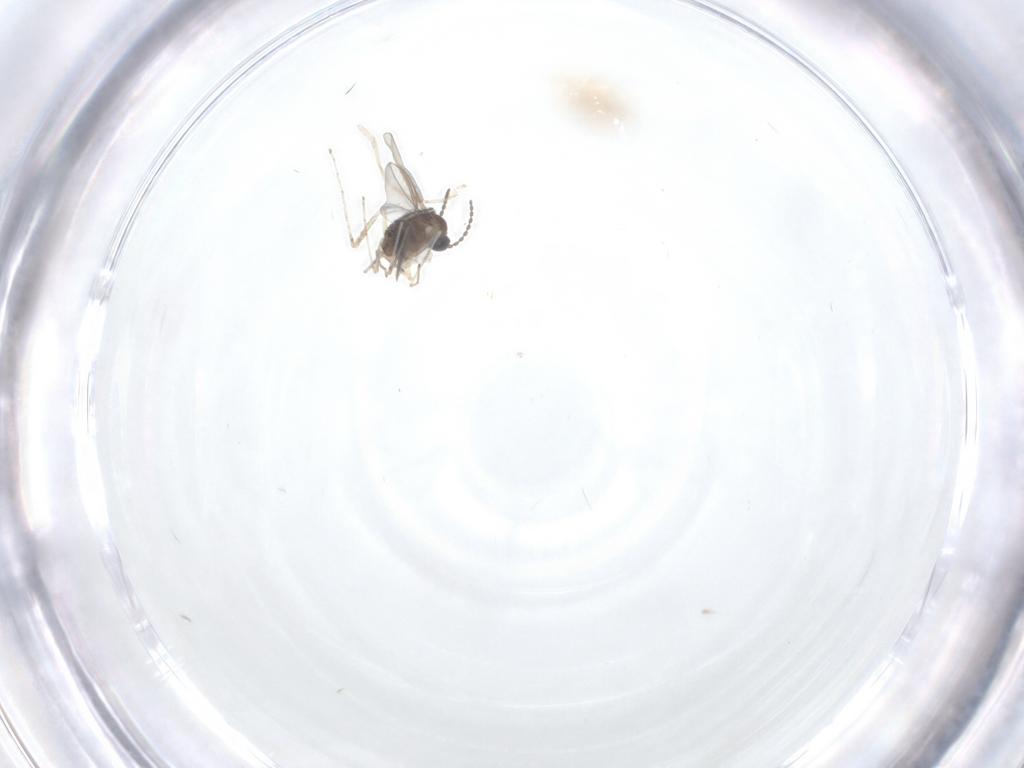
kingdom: Animalia
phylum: Arthropoda
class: Insecta
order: Diptera
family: Cecidomyiidae
